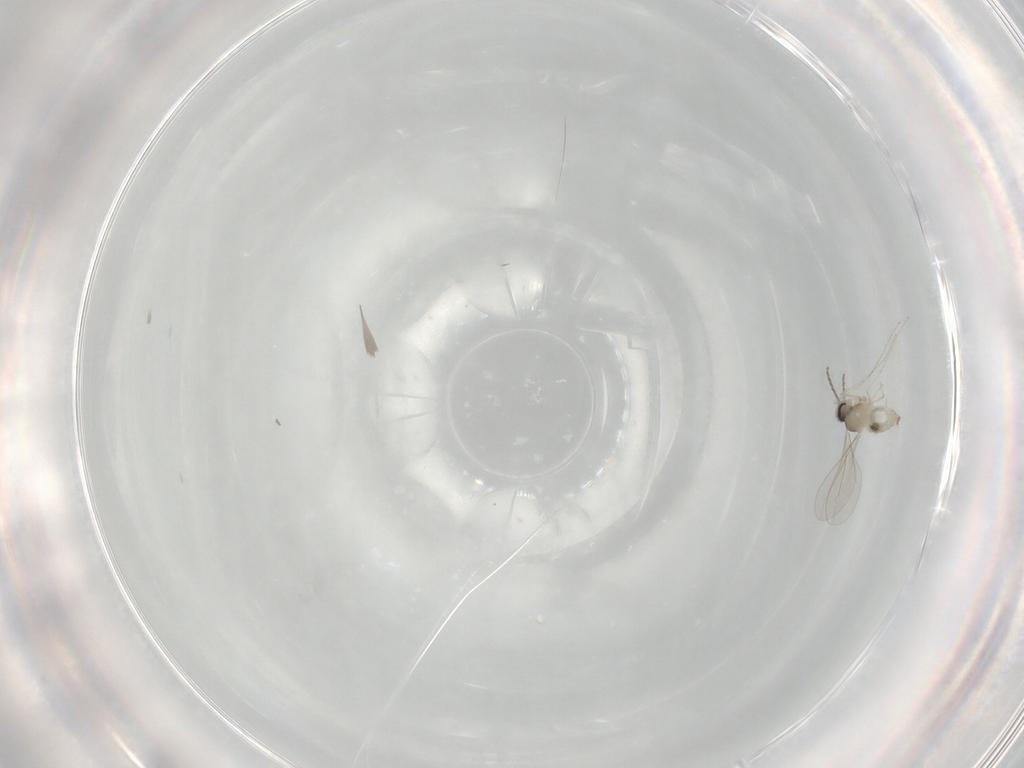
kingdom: Animalia
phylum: Arthropoda
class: Insecta
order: Diptera
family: Cecidomyiidae
